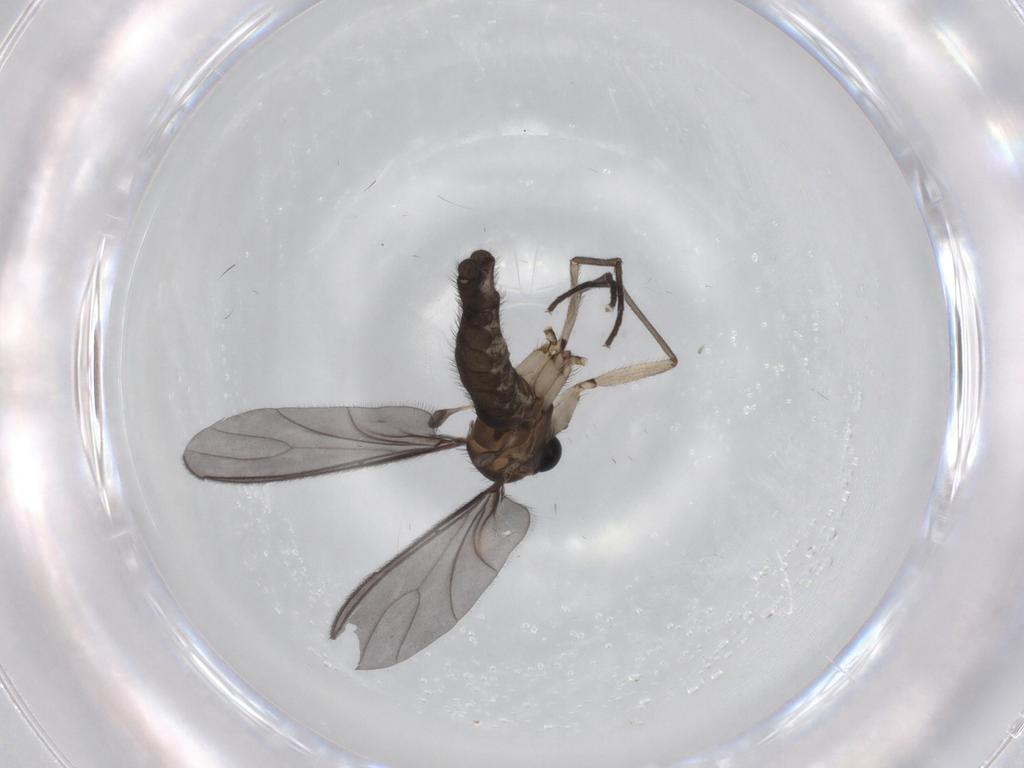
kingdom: Animalia
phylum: Arthropoda
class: Insecta
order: Diptera
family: Sciaridae
